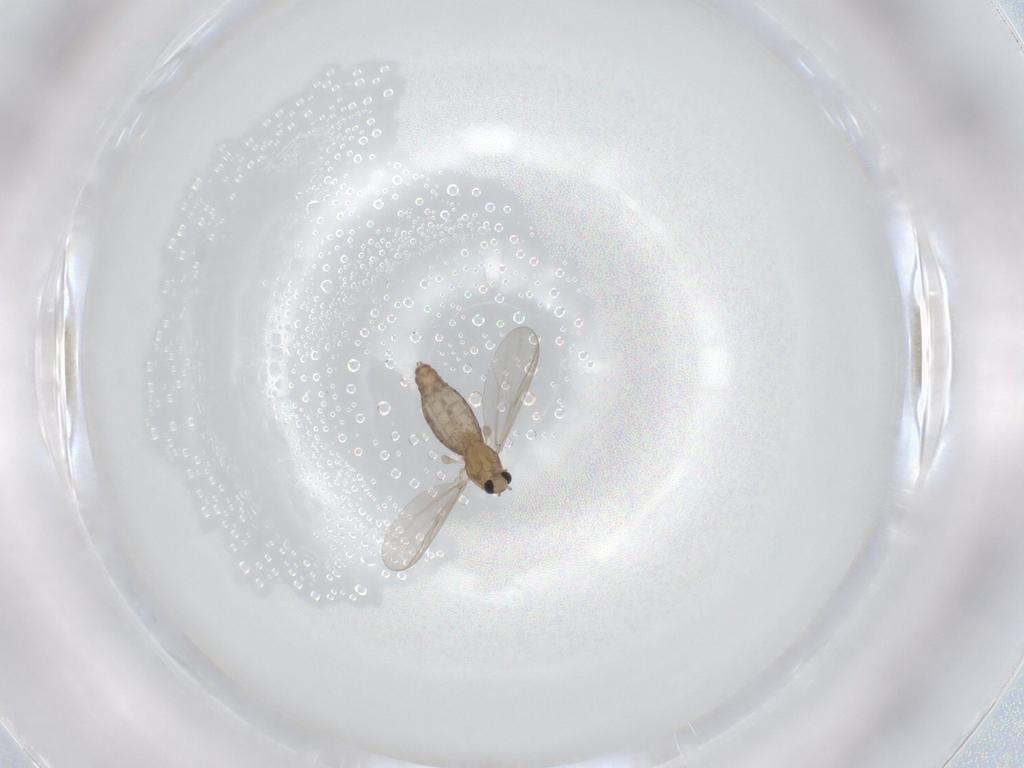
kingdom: Animalia
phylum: Arthropoda
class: Insecta
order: Diptera
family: Chironomidae
